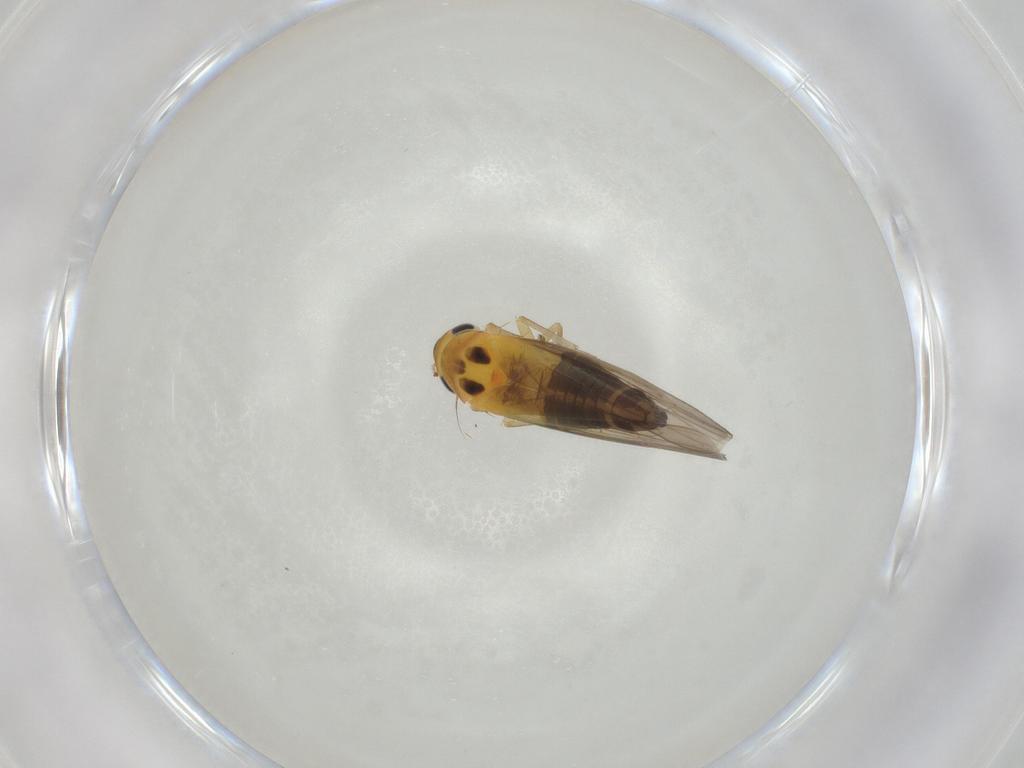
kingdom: Animalia
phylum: Arthropoda
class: Insecta
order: Hemiptera
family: Cicadellidae
